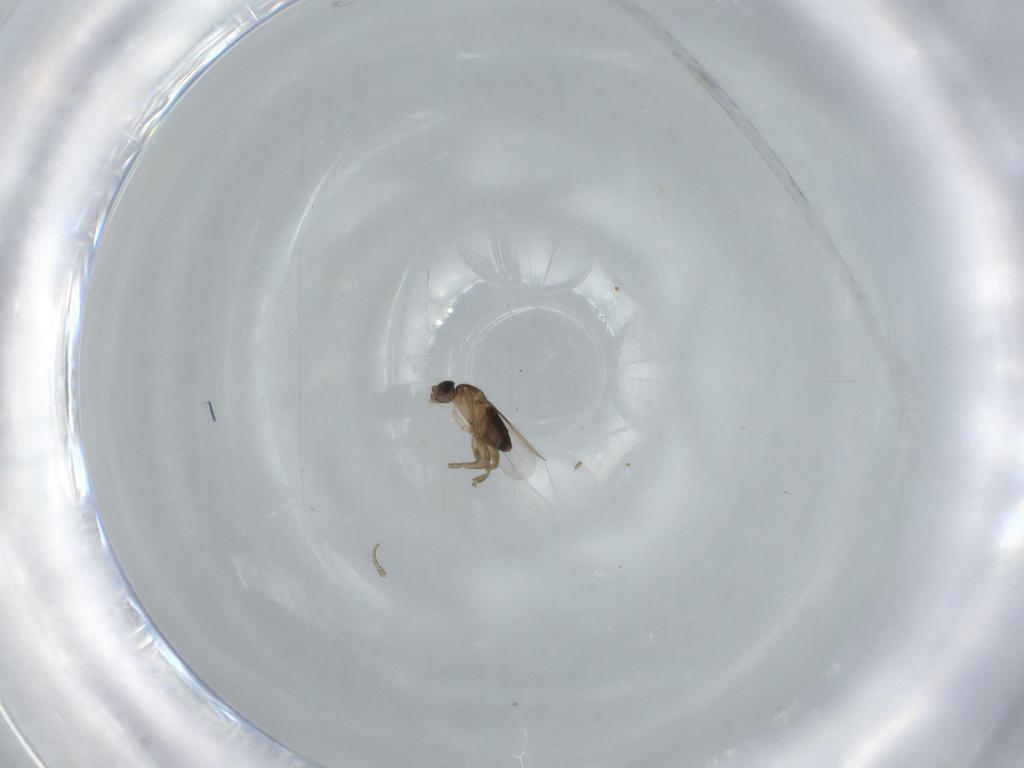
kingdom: Animalia
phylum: Arthropoda
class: Insecta
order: Diptera
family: Phoridae
